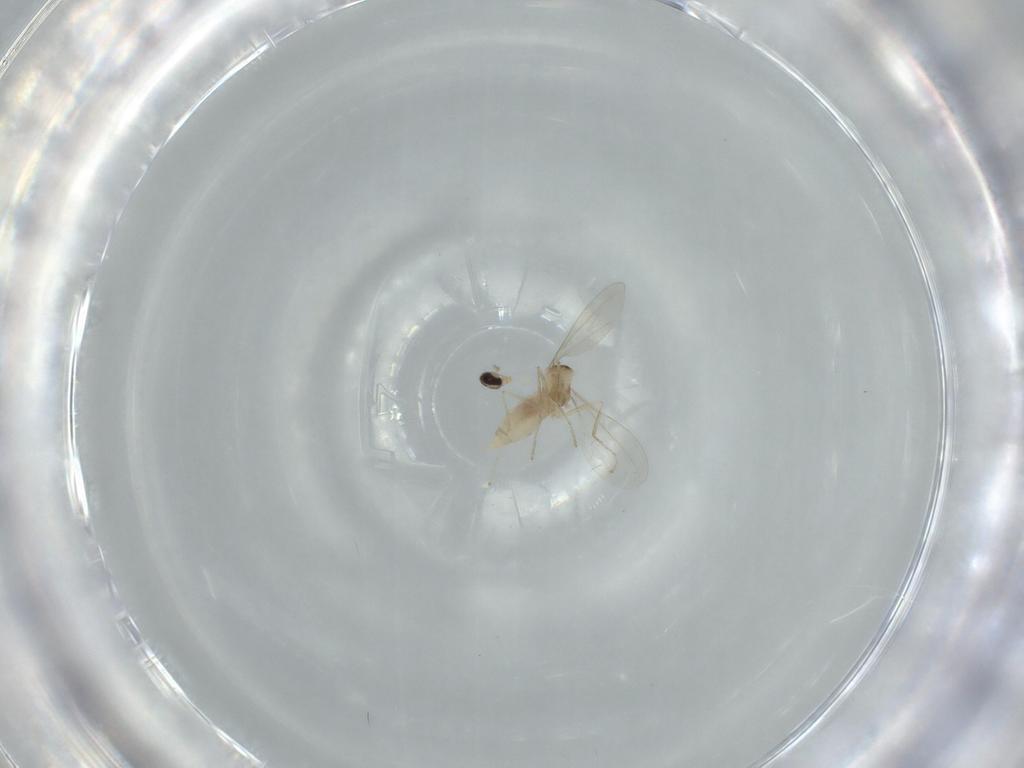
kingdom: Animalia
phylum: Arthropoda
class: Insecta
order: Diptera
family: Cecidomyiidae
